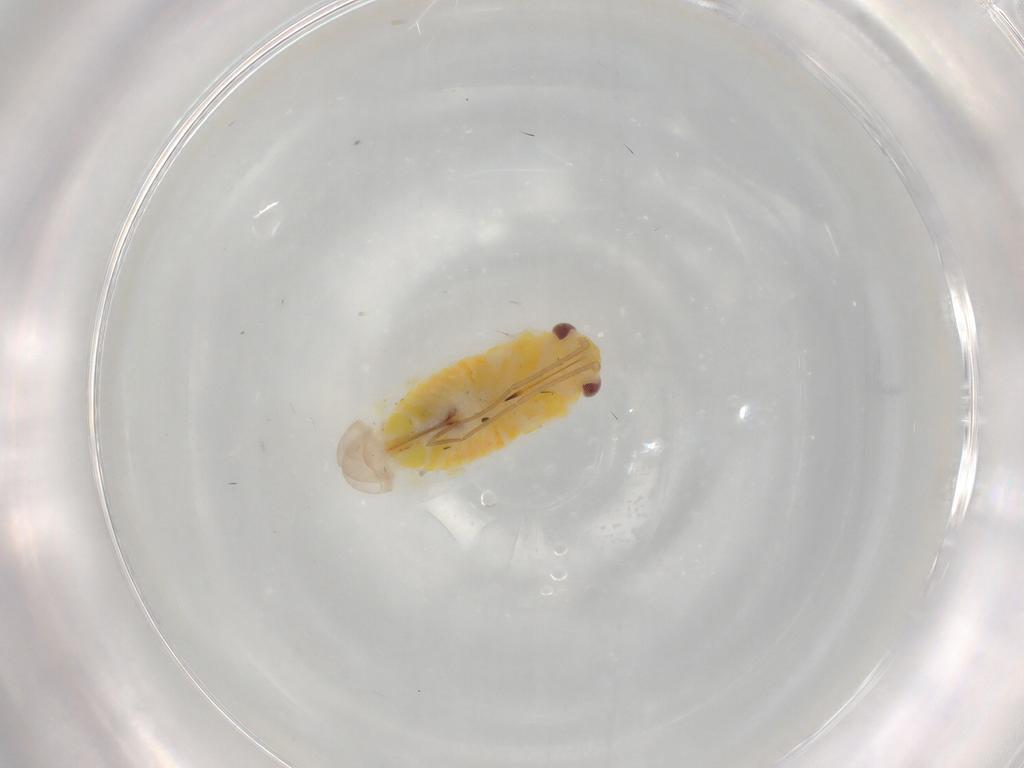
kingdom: Animalia
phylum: Arthropoda
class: Insecta
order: Hemiptera
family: Miridae
